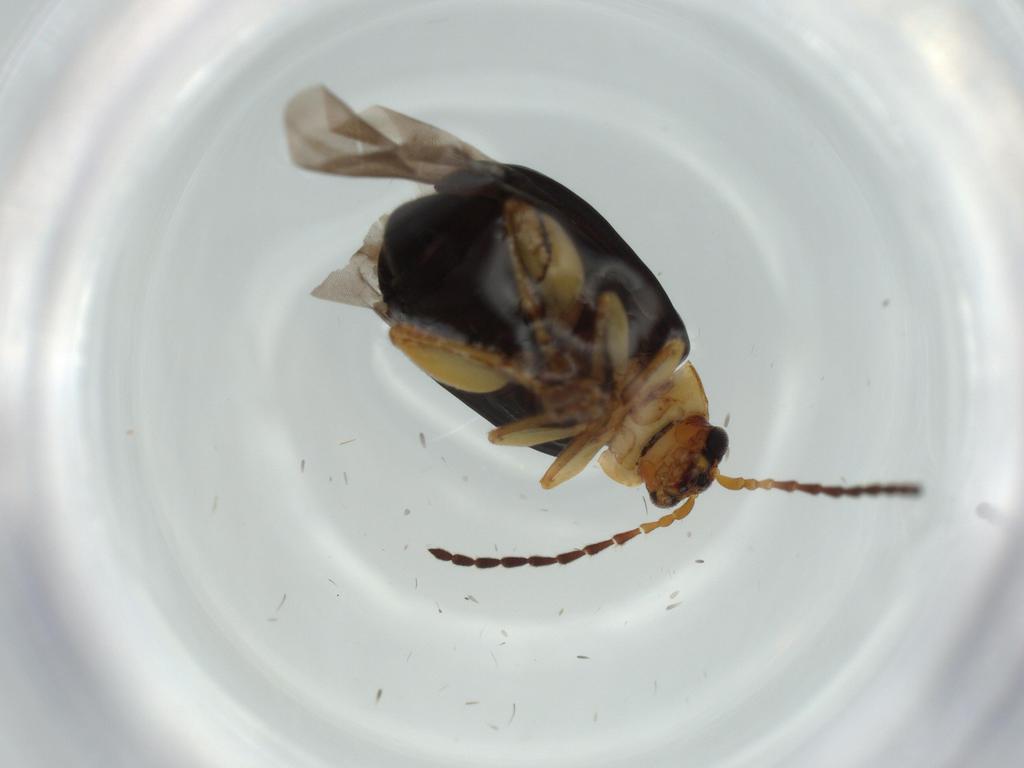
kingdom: Animalia
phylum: Arthropoda
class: Insecta
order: Coleoptera
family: Chrysomelidae
